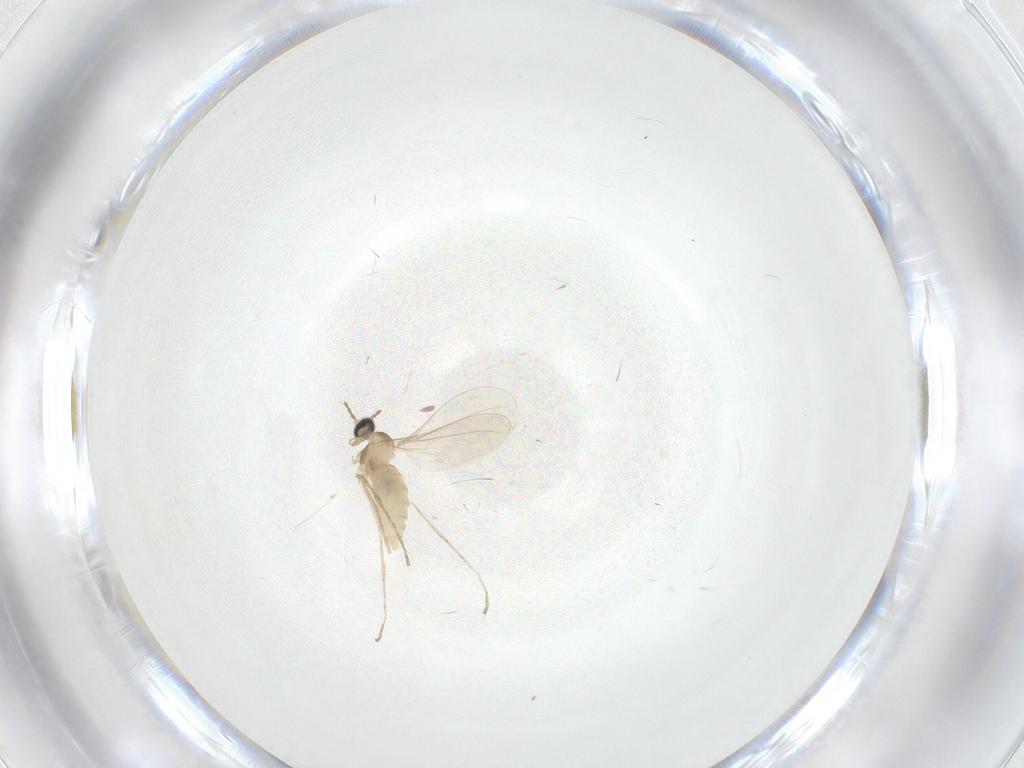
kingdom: Animalia
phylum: Arthropoda
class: Insecta
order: Diptera
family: Cecidomyiidae
